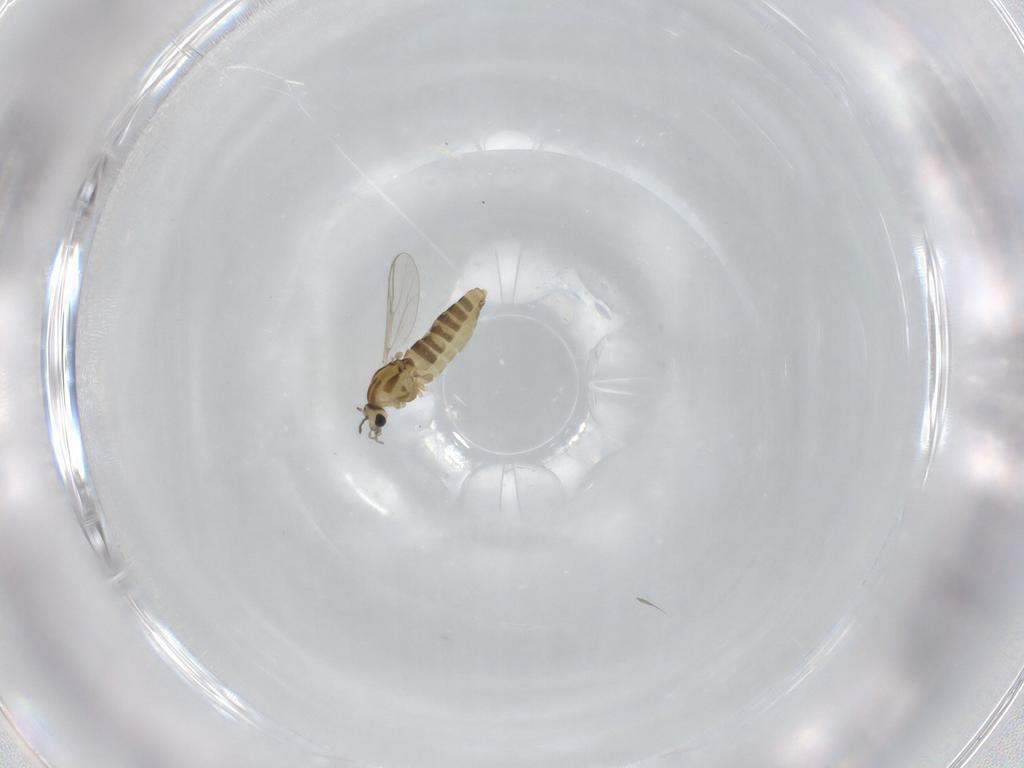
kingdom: Animalia
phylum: Arthropoda
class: Insecta
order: Diptera
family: Chironomidae
